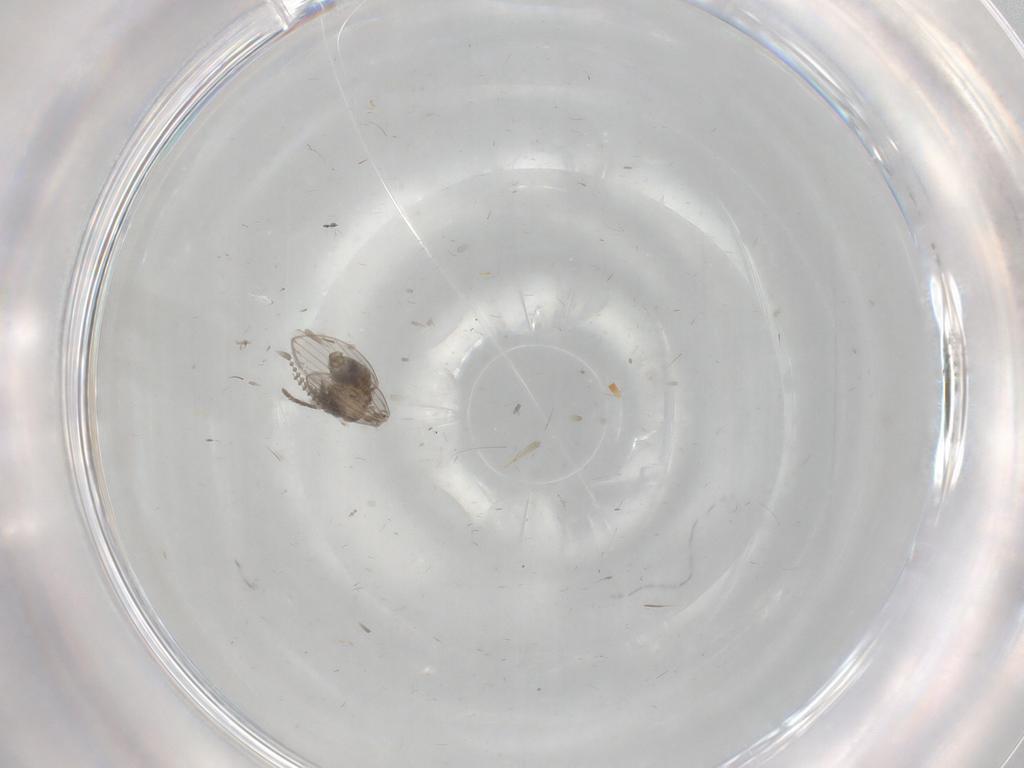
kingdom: Animalia
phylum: Arthropoda
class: Insecta
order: Diptera
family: Psychodidae
